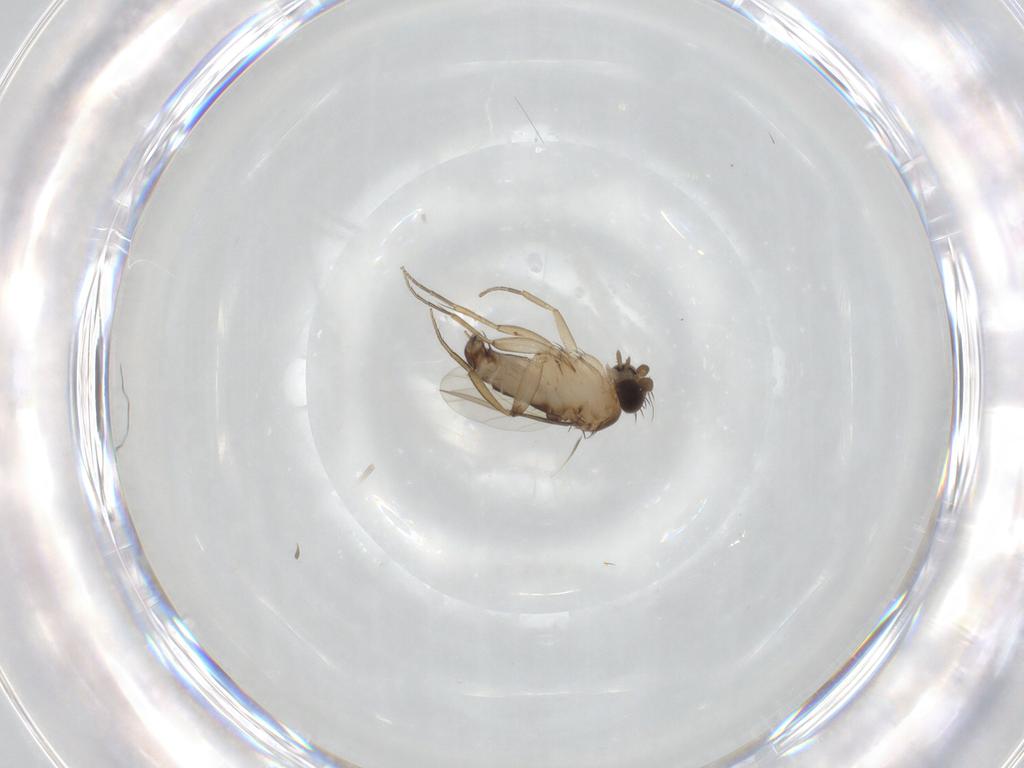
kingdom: Animalia
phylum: Arthropoda
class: Insecta
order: Diptera
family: Phoridae
